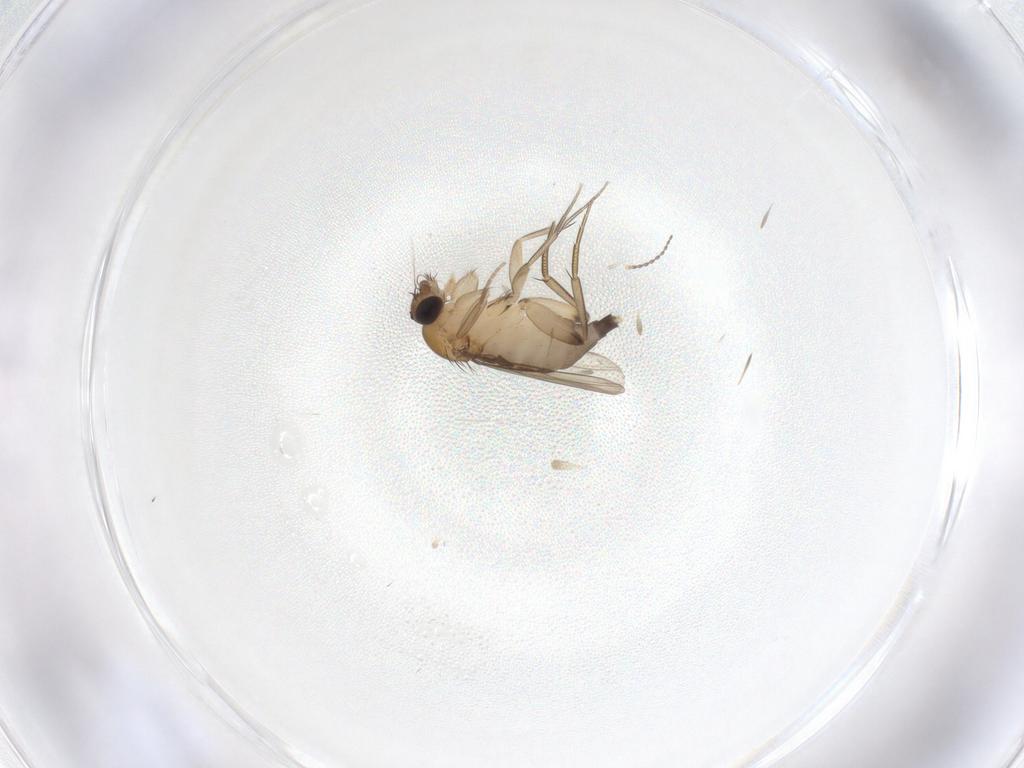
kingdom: Animalia
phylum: Arthropoda
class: Insecta
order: Diptera
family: Phoridae
